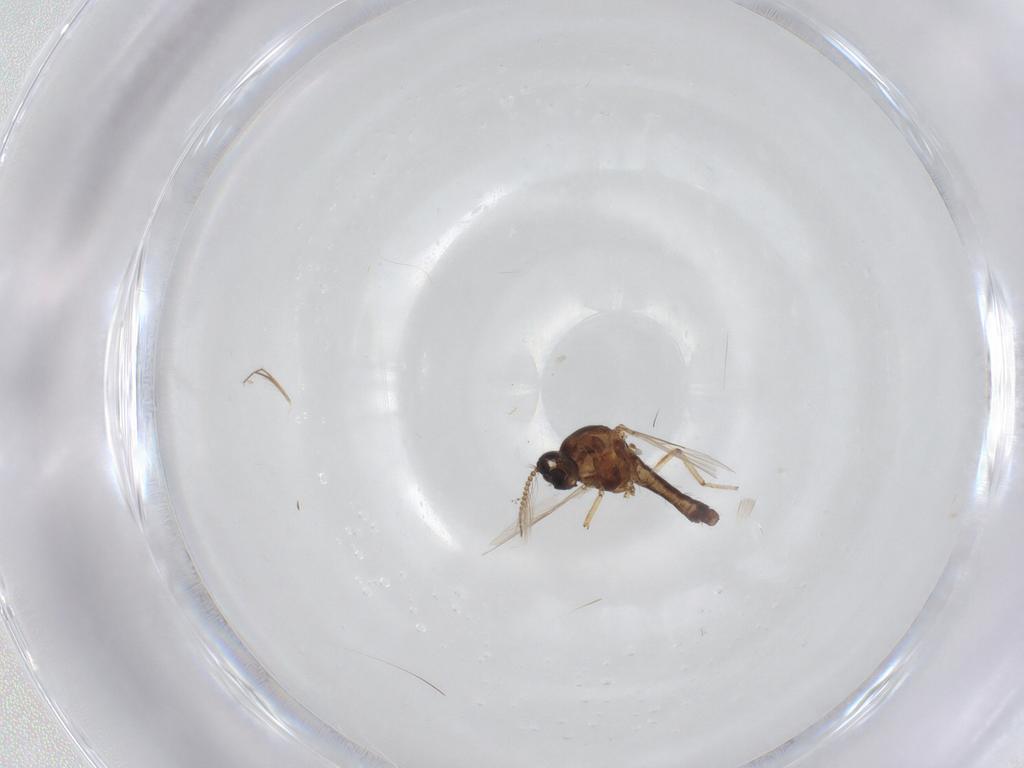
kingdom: Animalia
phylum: Arthropoda
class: Insecta
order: Diptera
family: Ceratopogonidae
